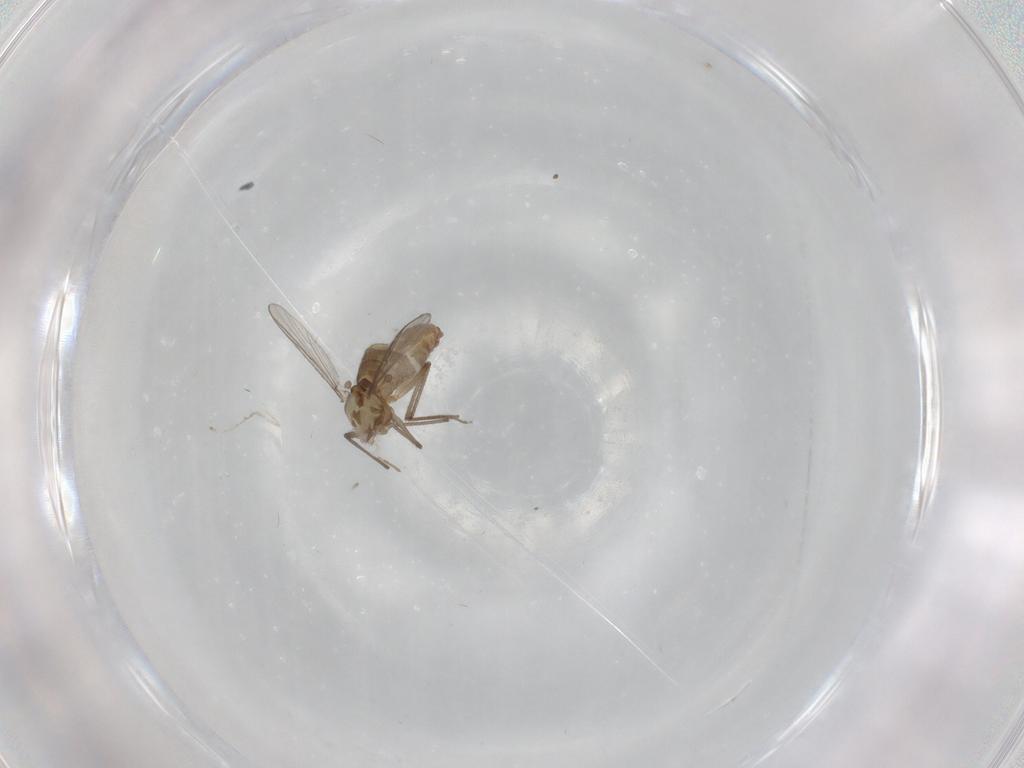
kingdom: Animalia
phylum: Arthropoda
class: Insecta
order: Diptera
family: Chironomidae
